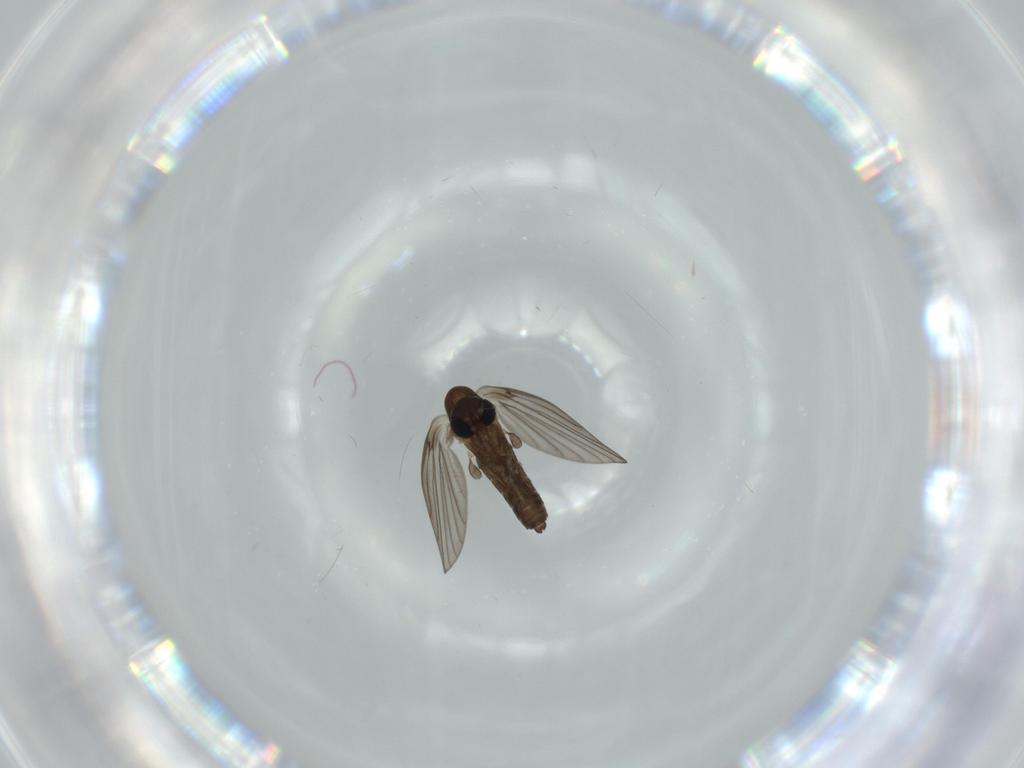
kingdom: Animalia
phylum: Arthropoda
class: Insecta
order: Diptera
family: Psychodidae
